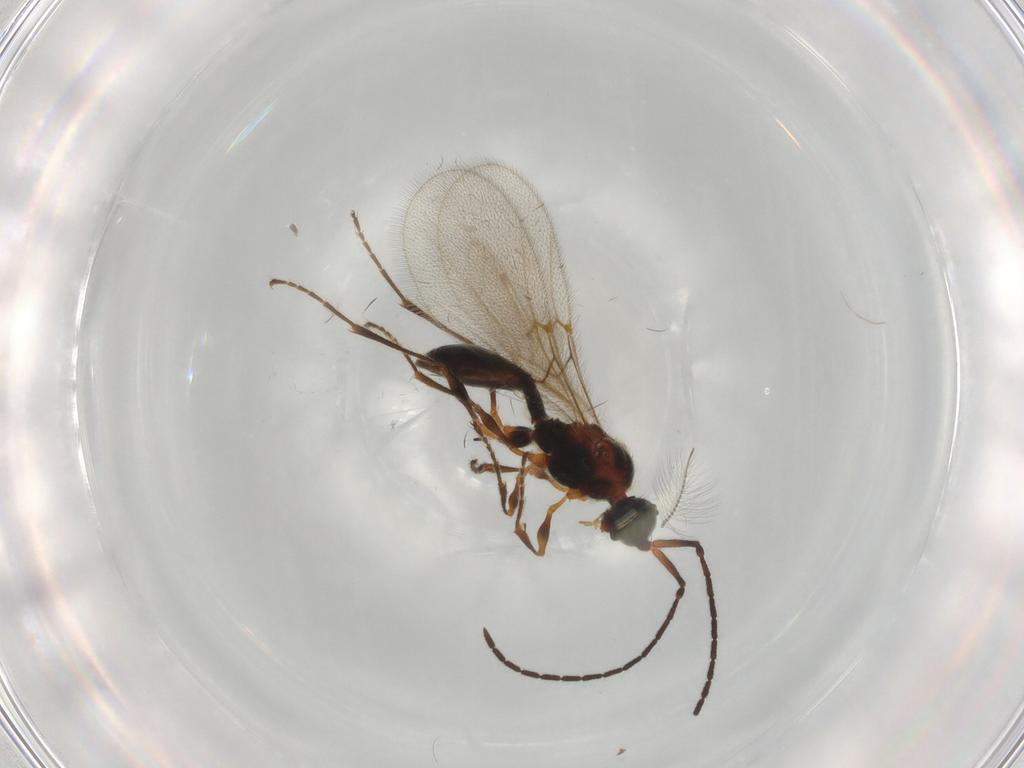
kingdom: Animalia
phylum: Arthropoda
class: Insecta
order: Hymenoptera
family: Diapriidae
